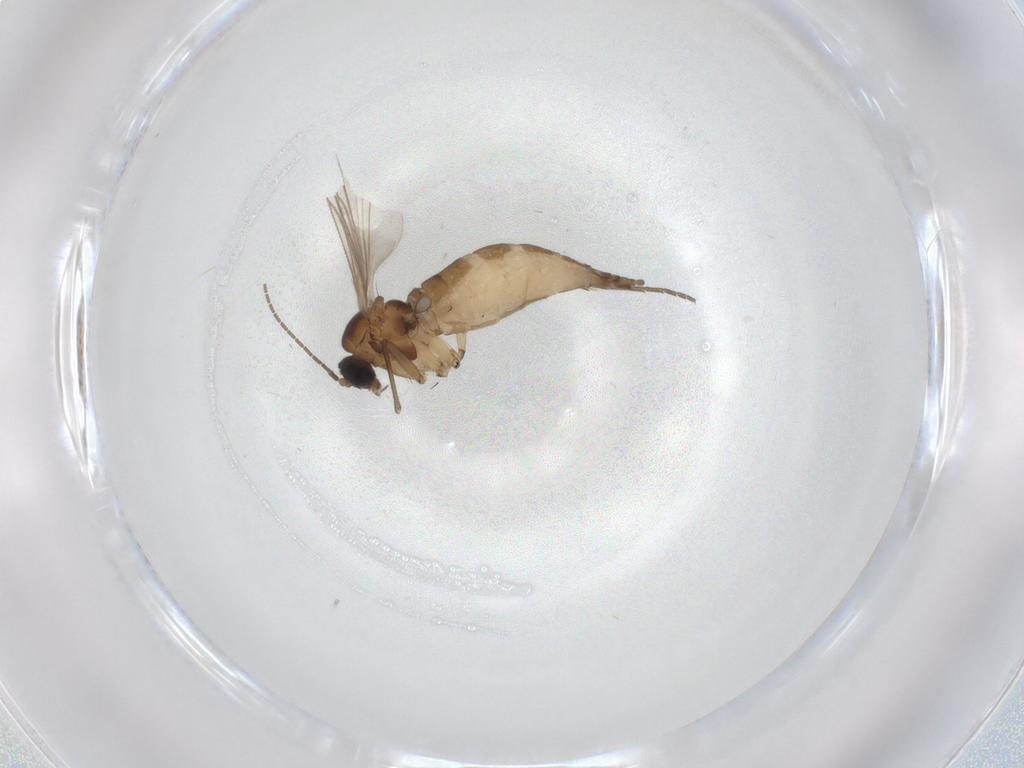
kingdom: Animalia
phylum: Arthropoda
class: Insecta
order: Diptera
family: Sciaridae
